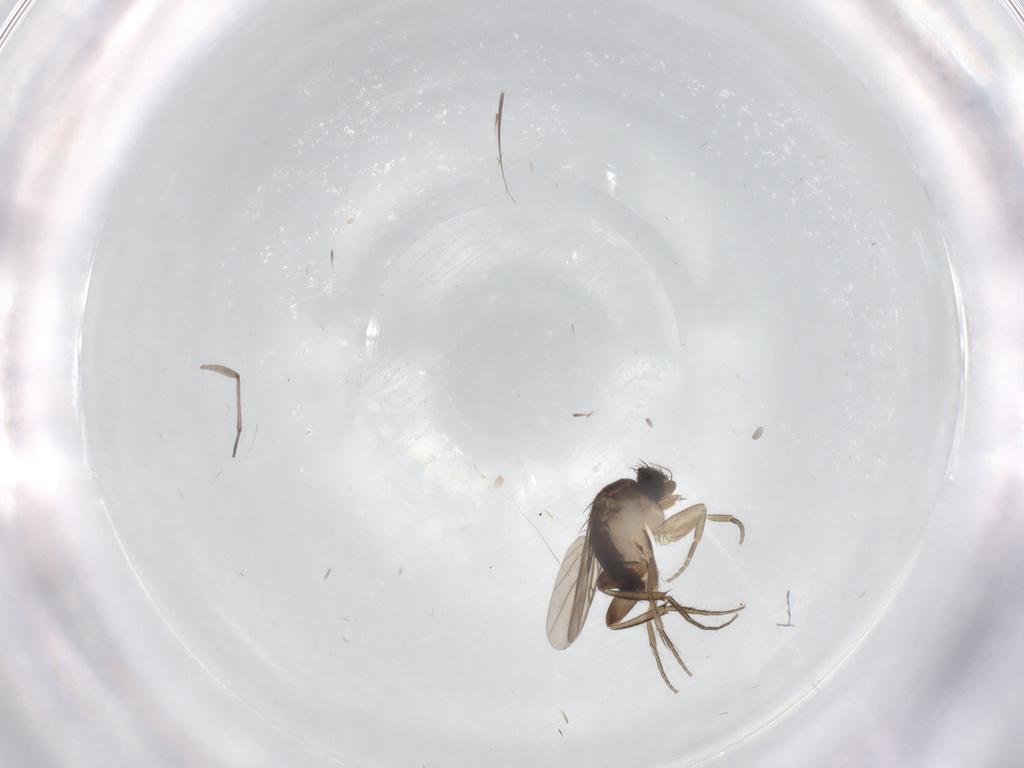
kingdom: Animalia
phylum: Arthropoda
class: Insecta
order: Diptera
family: Phoridae
